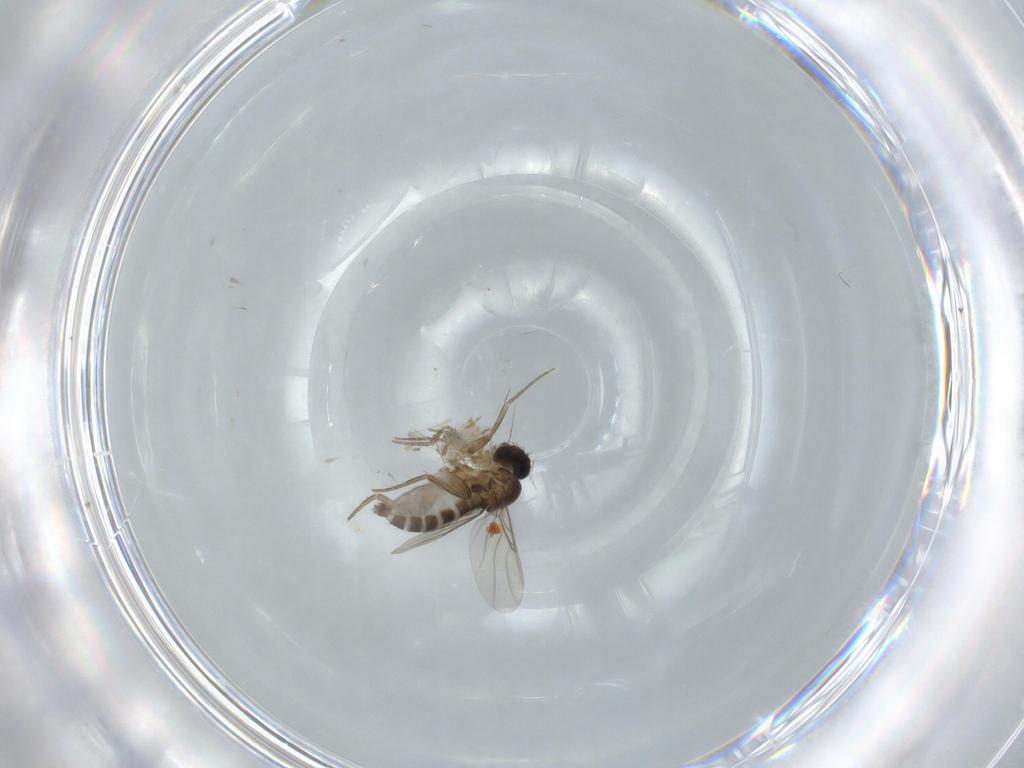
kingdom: Animalia
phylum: Arthropoda
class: Insecta
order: Diptera
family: Phoridae
